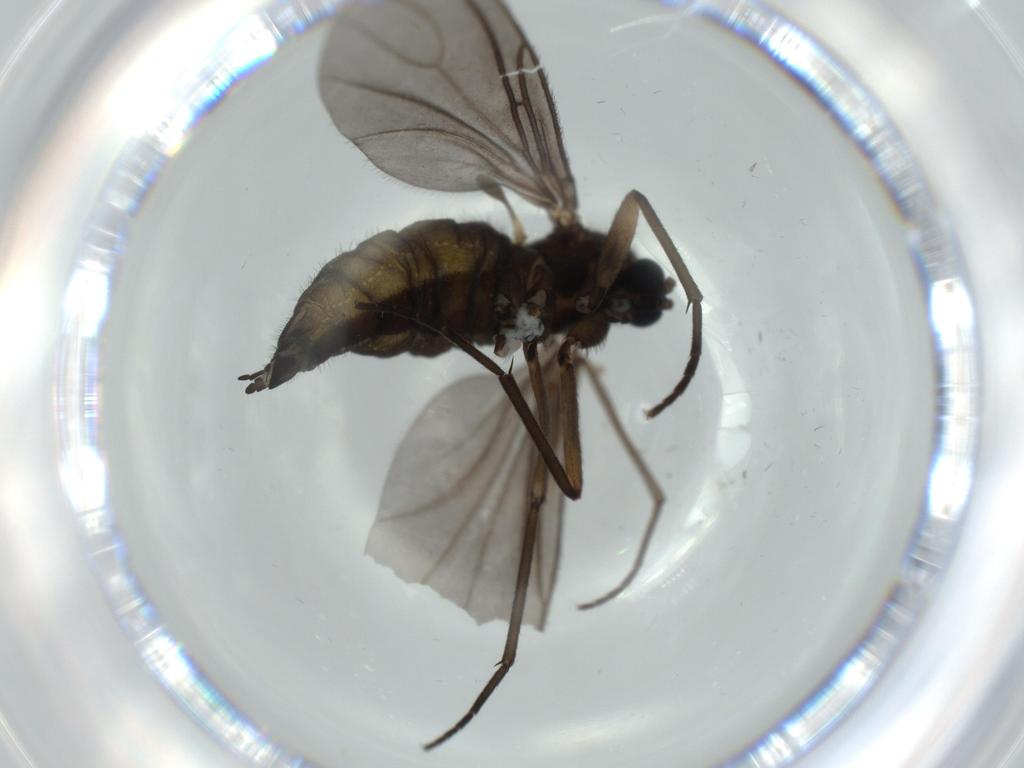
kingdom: Animalia
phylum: Arthropoda
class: Insecta
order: Diptera
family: Sciaridae
